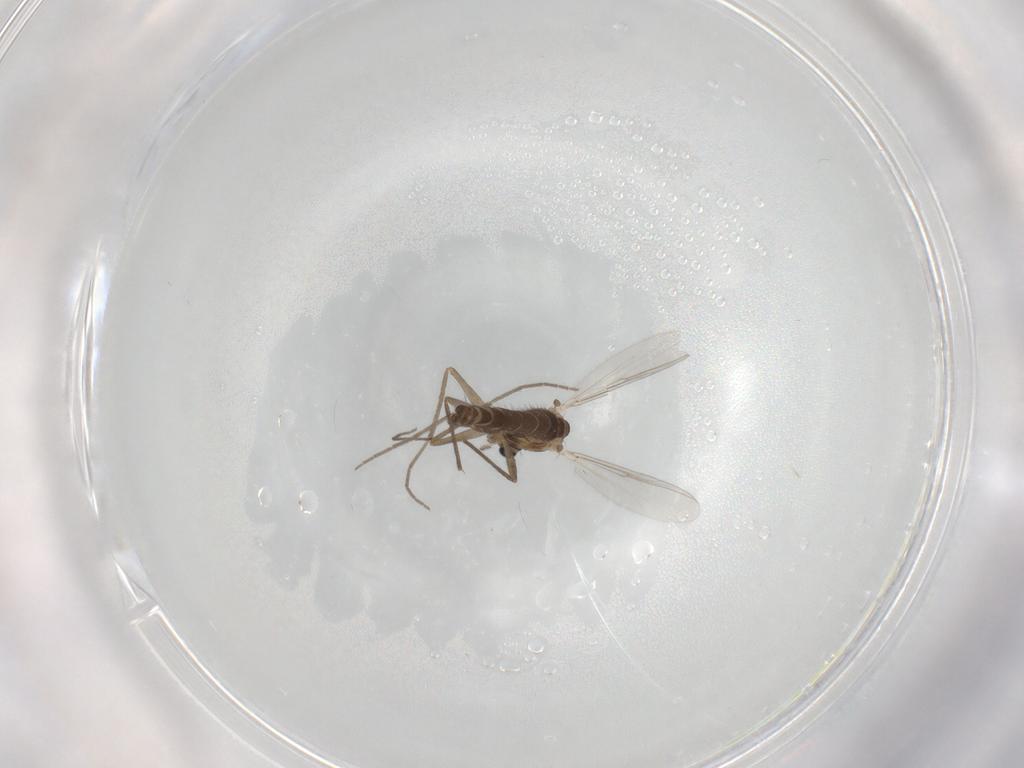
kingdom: Animalia
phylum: Arthropoda
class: Insecta
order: Diptera
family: Chironomidae
